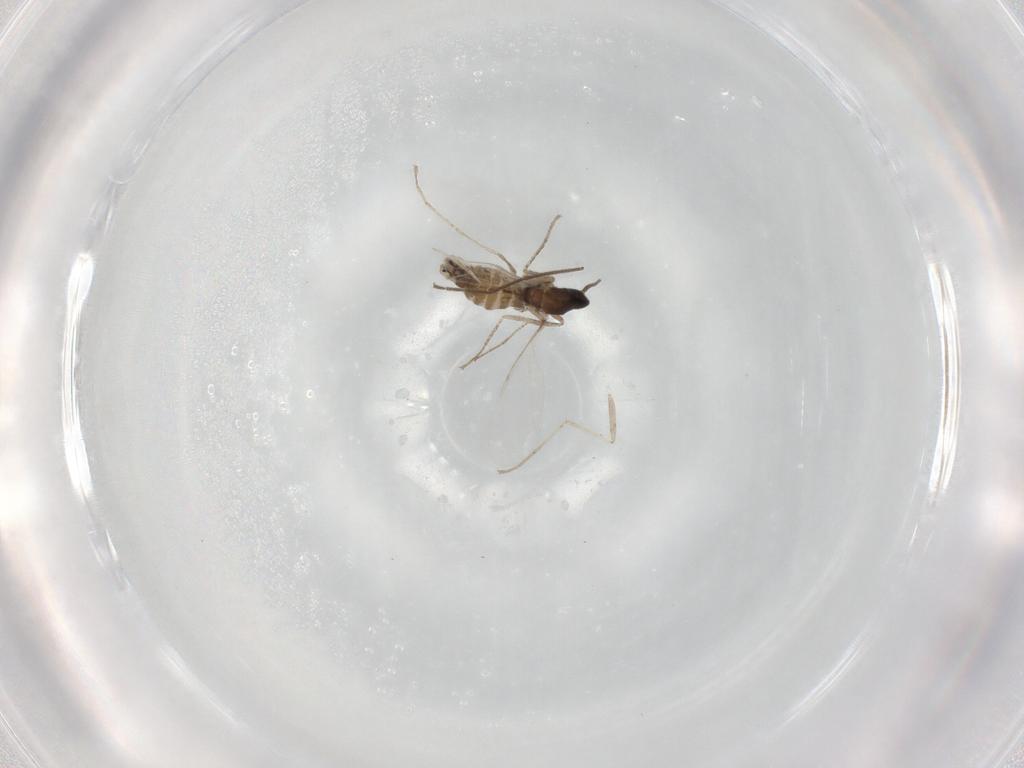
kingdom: Animalia
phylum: Arthropoda
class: Insecta
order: Diptera
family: Cecidomyiidae
